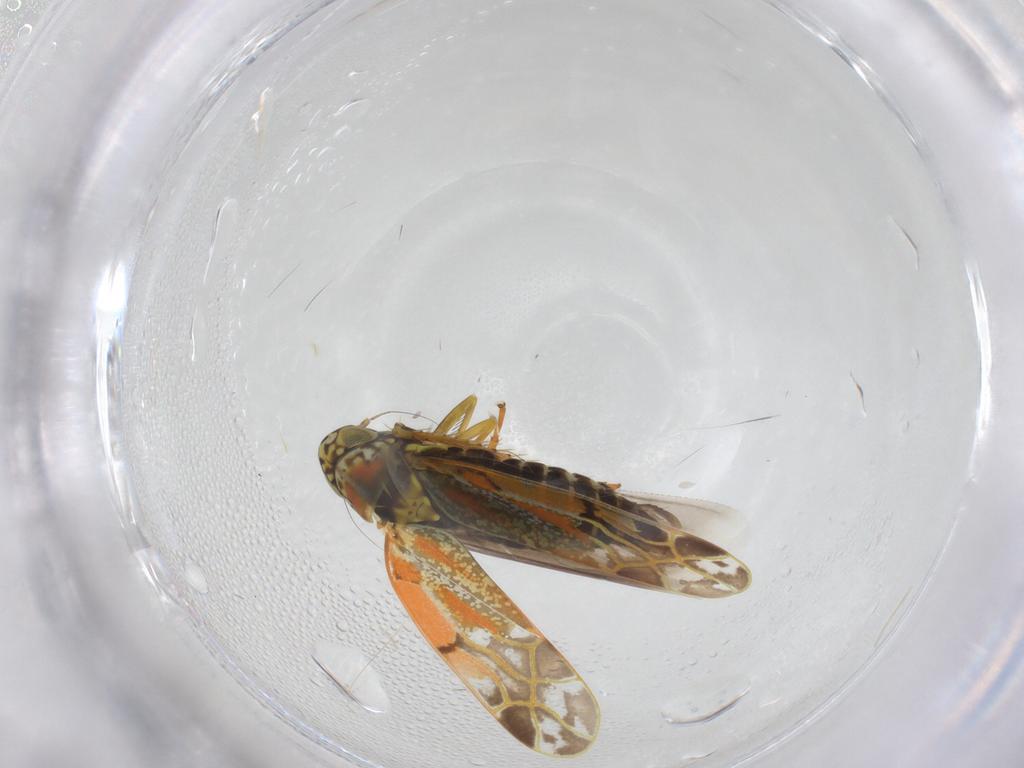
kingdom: Animalia
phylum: Arthropoda
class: Insecta
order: Hemiptera
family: Cicadellidae
